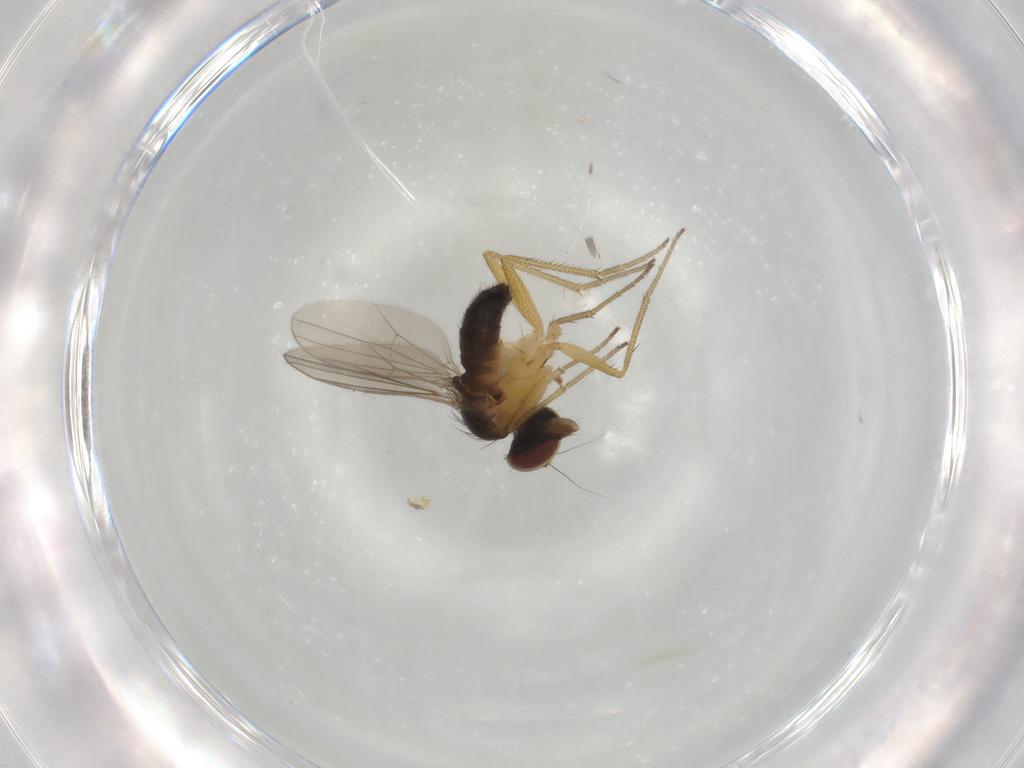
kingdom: Animalia
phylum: Arthropoda
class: Insecta
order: Diptera
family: Dolichopodidae
